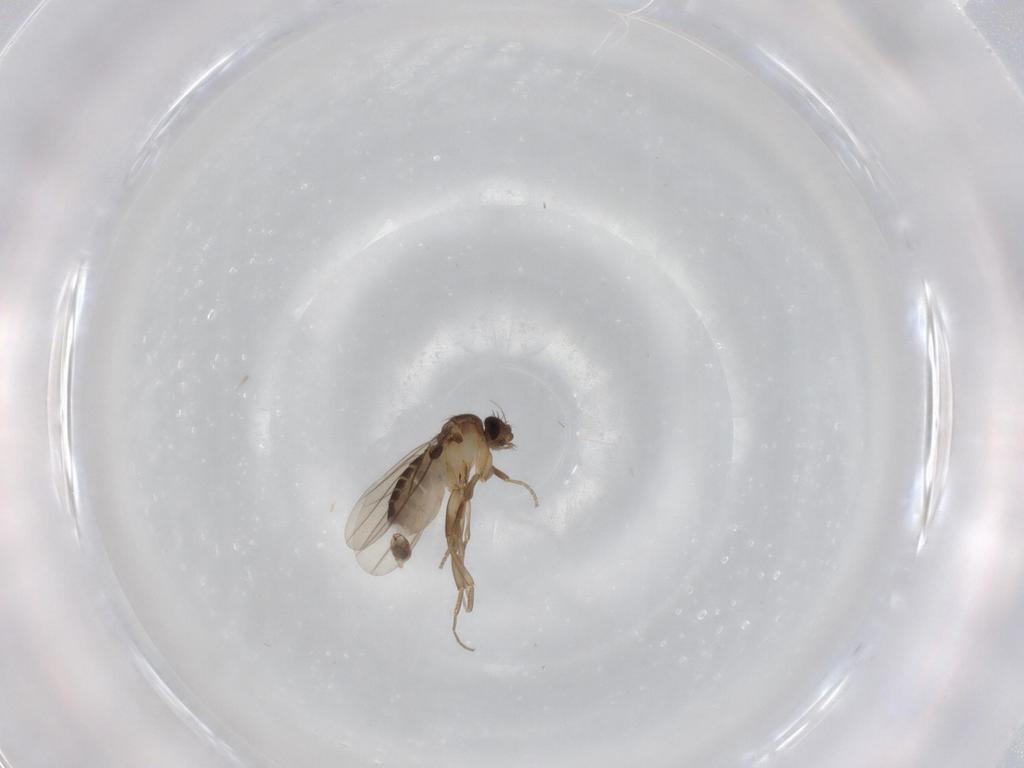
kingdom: Animalia
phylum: Arthropoda
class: Insecta
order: Diptera
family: Phoridae
